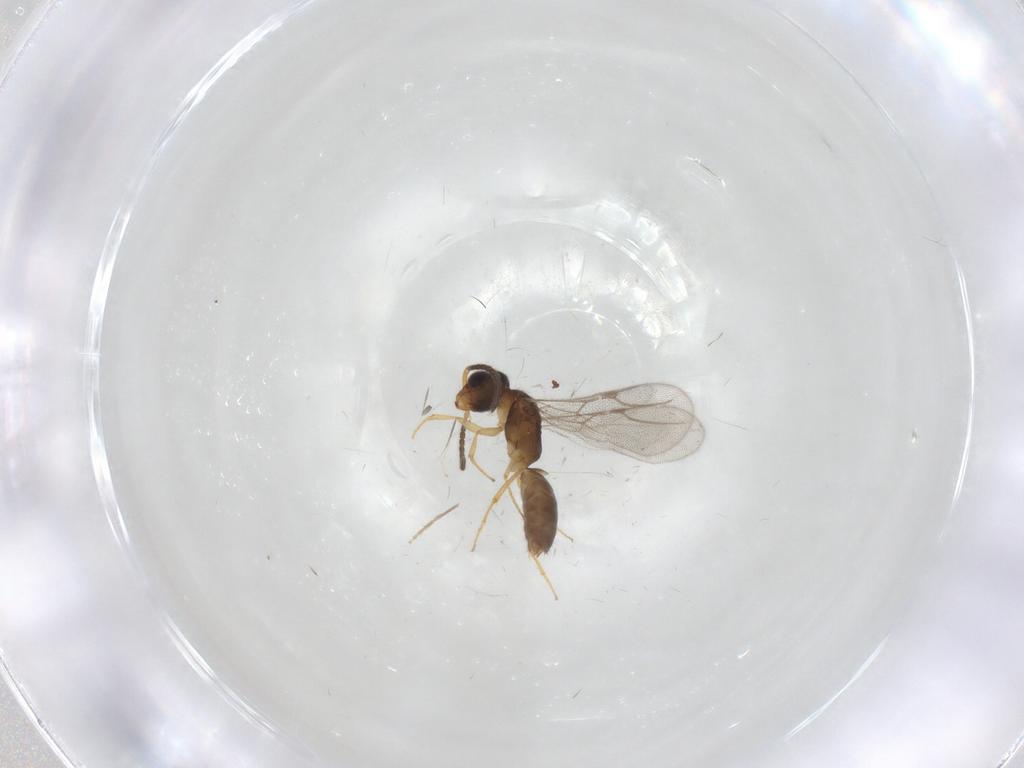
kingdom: Animalia
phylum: Arthropoda
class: Insecta
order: Hymenoptera
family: Bethylidae
